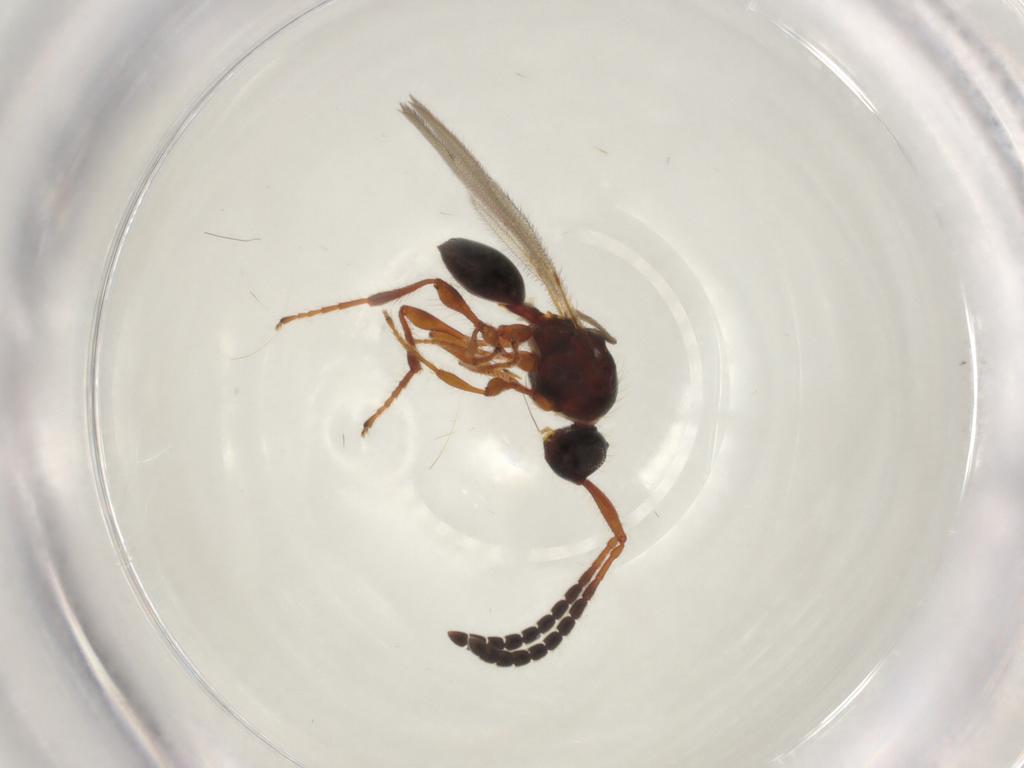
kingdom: Animalia
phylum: Arthropoda
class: Insecta
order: Hymenoptera
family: Diapriidae
